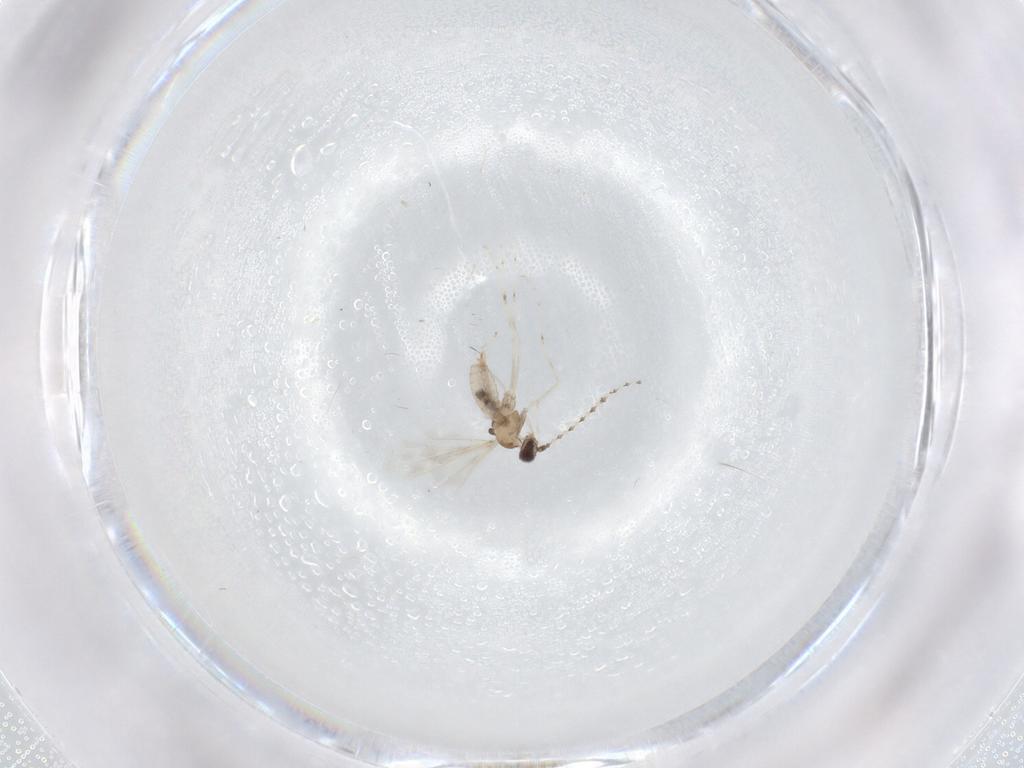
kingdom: Animalia
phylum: Arthropoda
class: Insecta
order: Diptera
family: Cecidomyiidae
